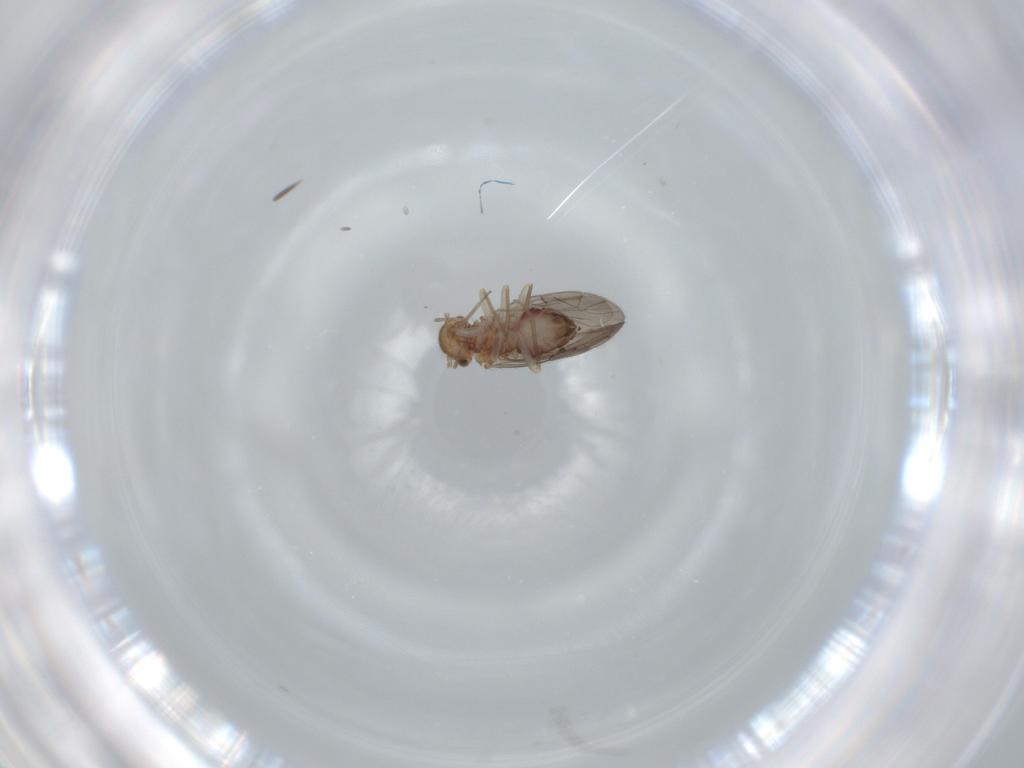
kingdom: Animalia
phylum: Arthropoda
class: Insecta
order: Psocodea
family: Ectopsocidae
